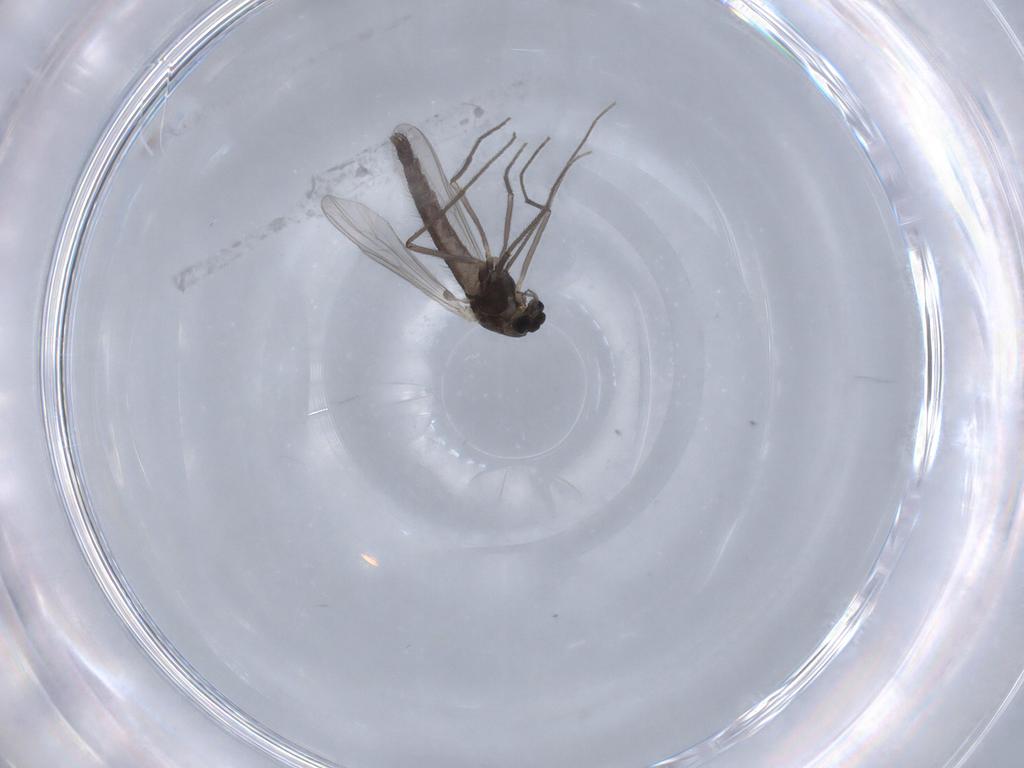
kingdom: Animalia
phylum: Arthropoda
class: Insecta
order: Diptera
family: Chironomidae
